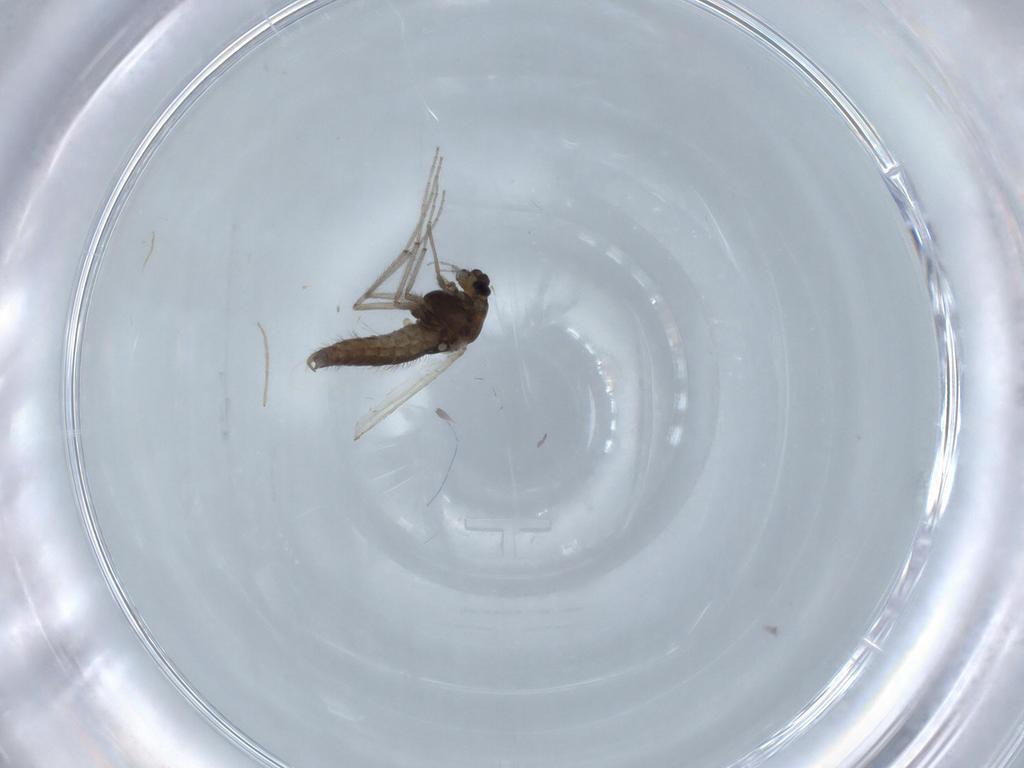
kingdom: Animalia
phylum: Arthropoda
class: Insecta
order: Diptera
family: Chironomidae
